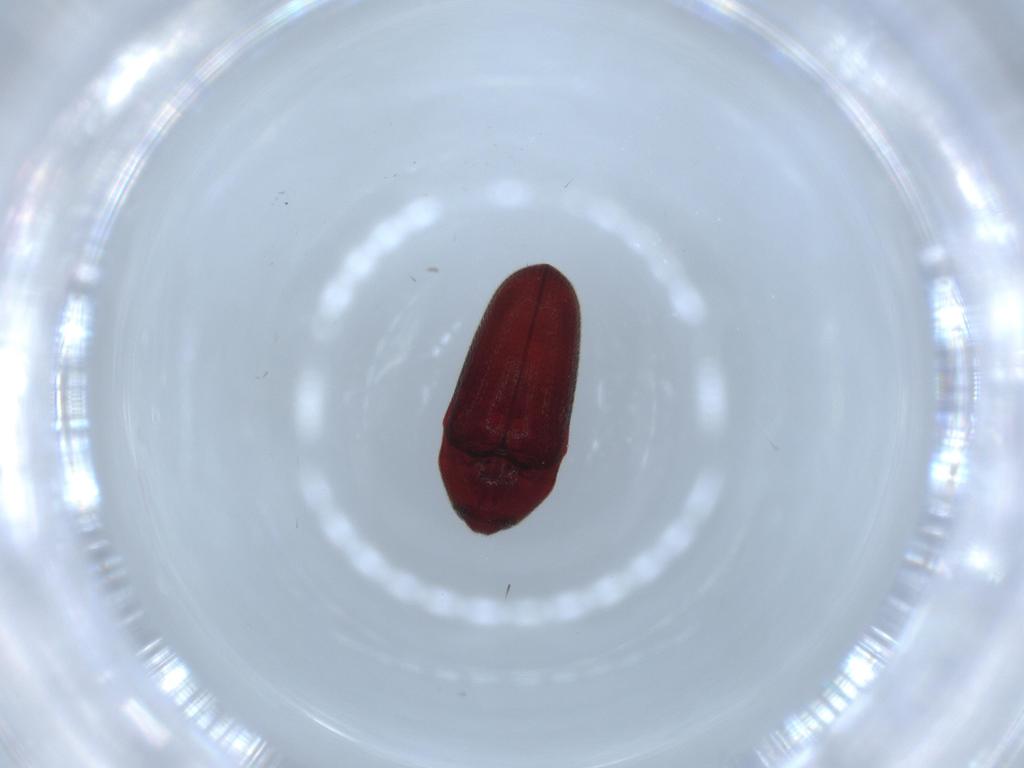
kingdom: Animalia
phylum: Arthropoda
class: Insecta
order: Coleoptera
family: Throscidae
